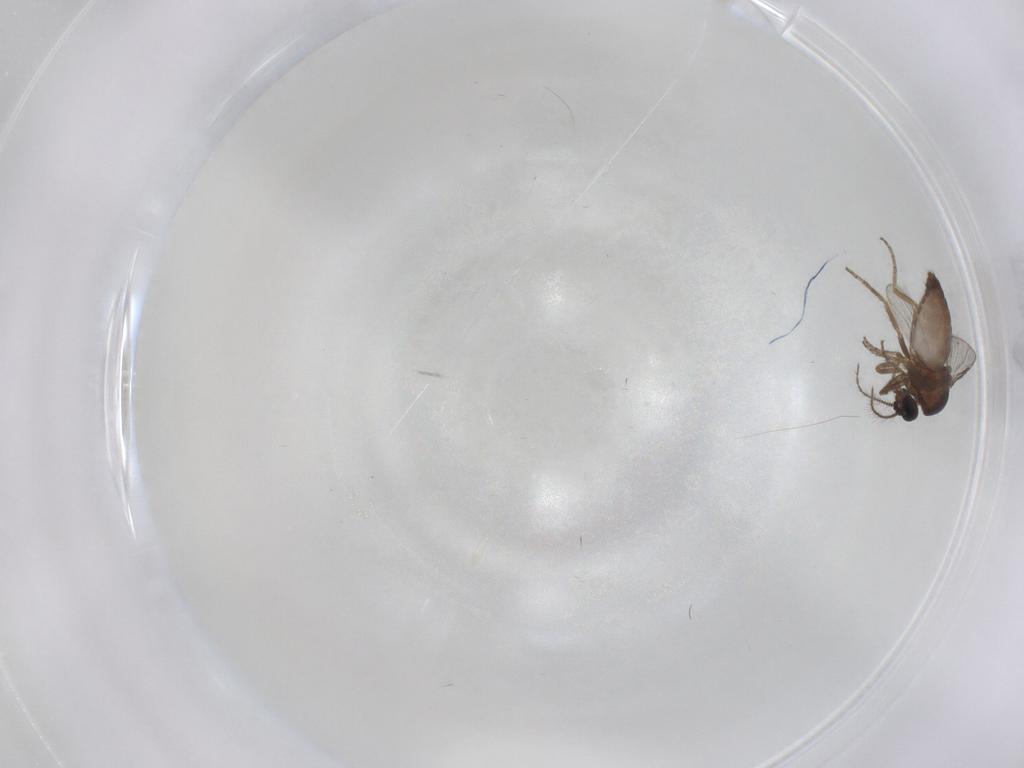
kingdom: Animalia
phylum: Arthropoda
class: Insecta
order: Diptera
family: Ceratopogonidae
